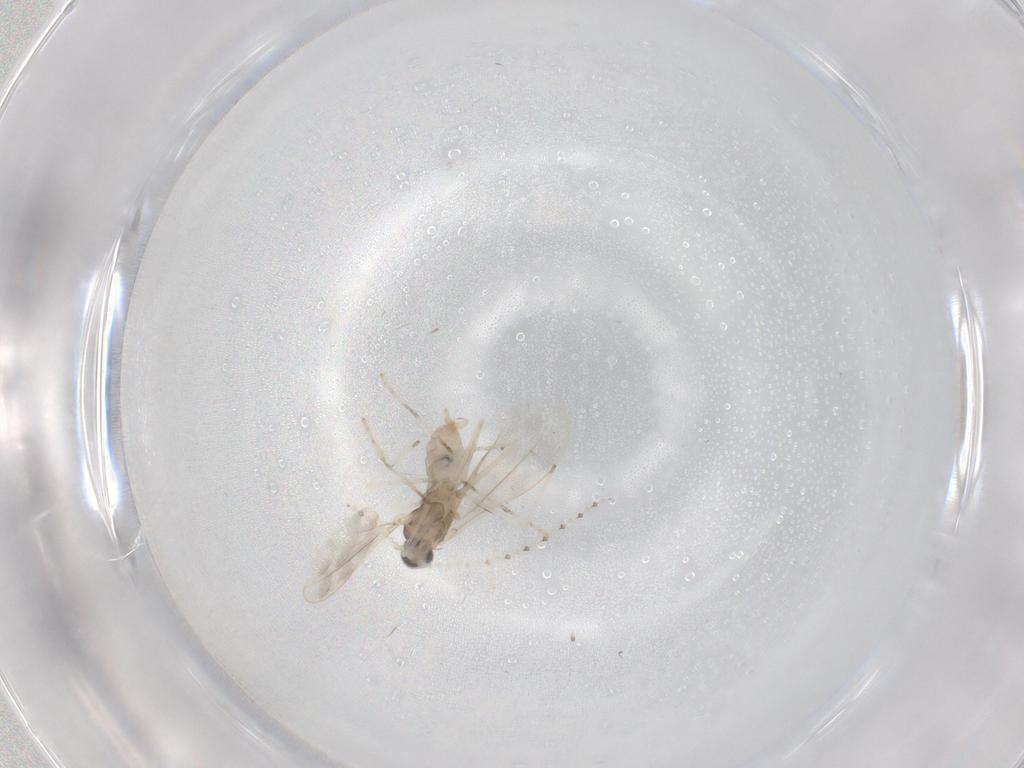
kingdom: Animalia
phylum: Arthropoda
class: Insecta
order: Diptera
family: Cecidomyiidae
